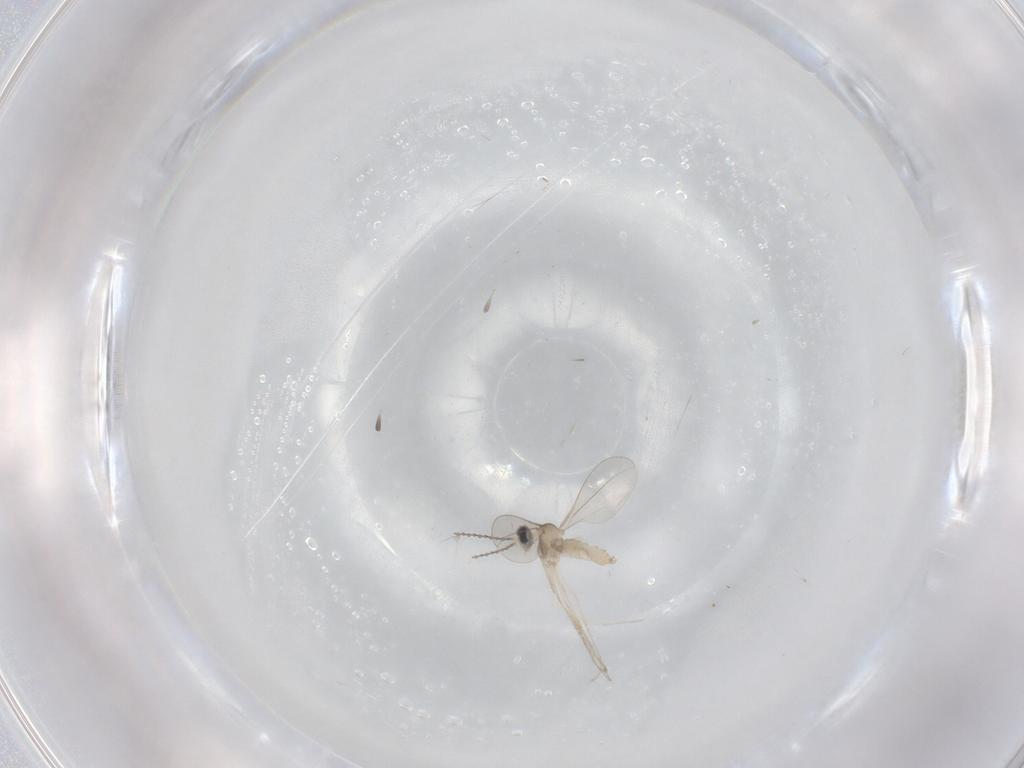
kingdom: Animalia
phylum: Arthropoda
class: Insecta
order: Diptera
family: Cecidomyiidae
